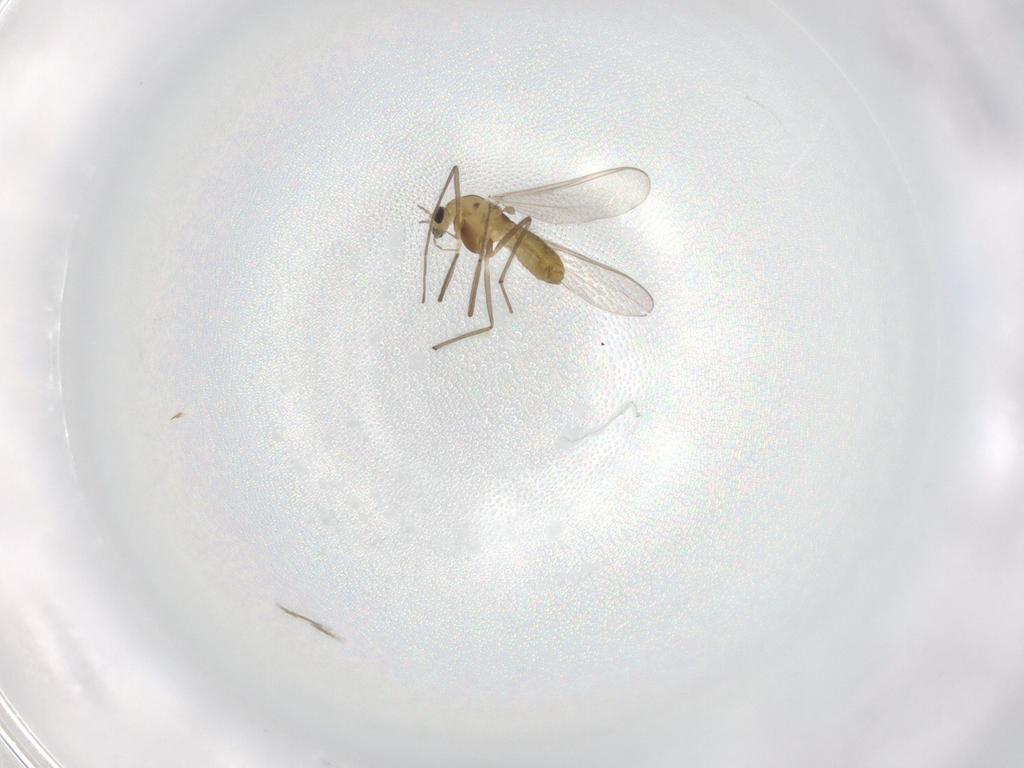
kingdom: Animalia
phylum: Arthropoda
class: Insecta
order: Diptera
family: Chironomidae
